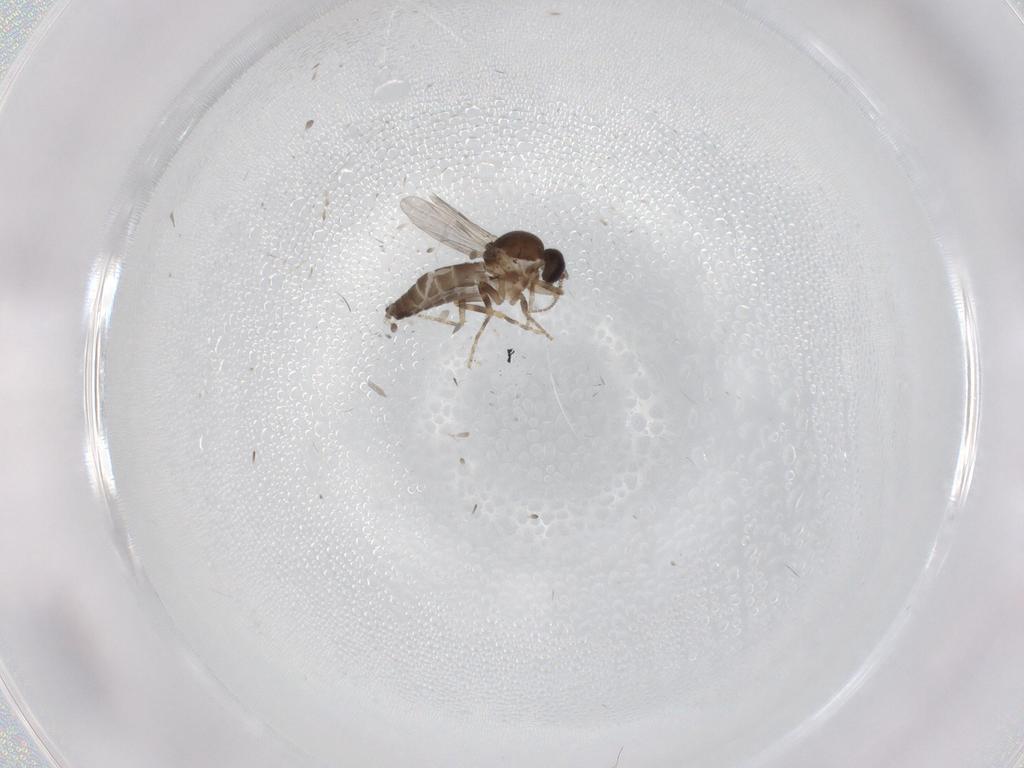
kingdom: Animalia
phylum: Arthropoda
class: Insecta
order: Diptera
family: Ceratopogonidae
